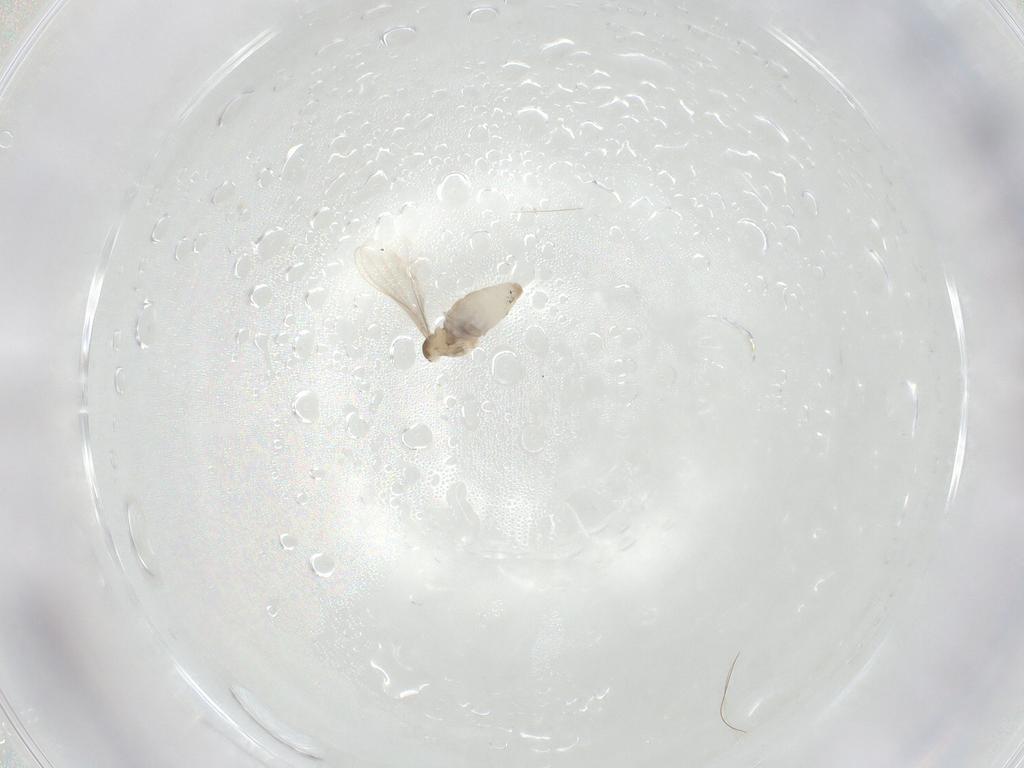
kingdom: Animalia
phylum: Arthropoda
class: Insecta
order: Diptera
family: Cecidomyiidae
